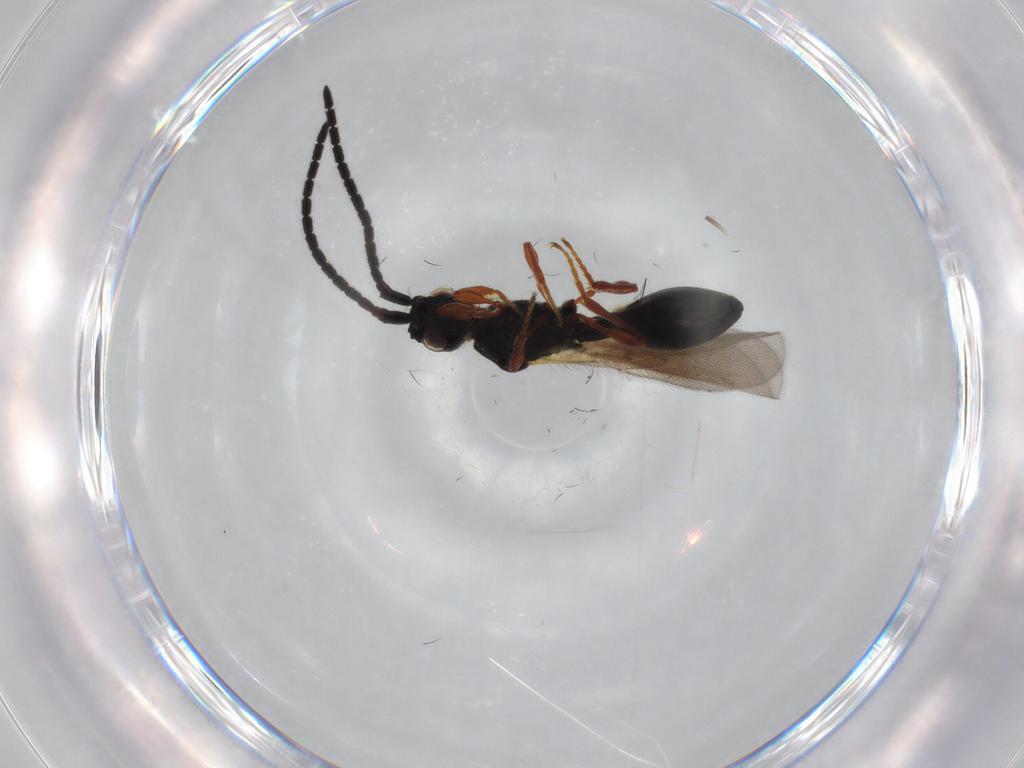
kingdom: Animalia
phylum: Arthropoda
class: Insecta
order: Hymenoptera
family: Diapriidae
